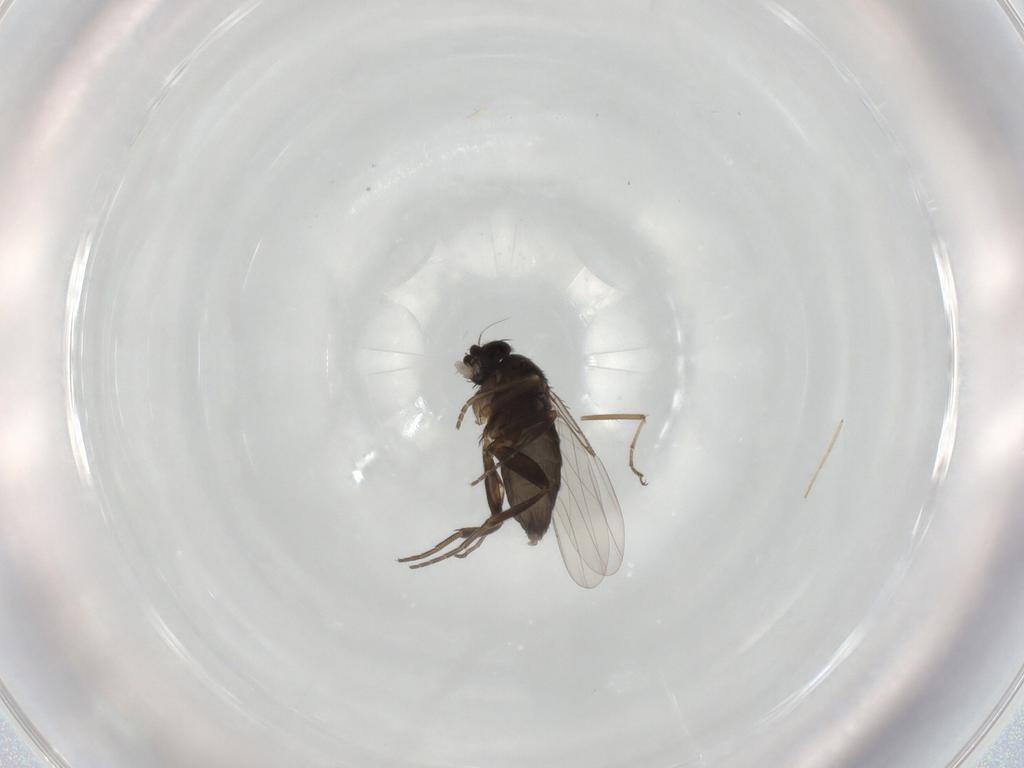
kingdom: Animalia
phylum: Arthropoda
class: Insecta
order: Diptera
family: Phoridae
